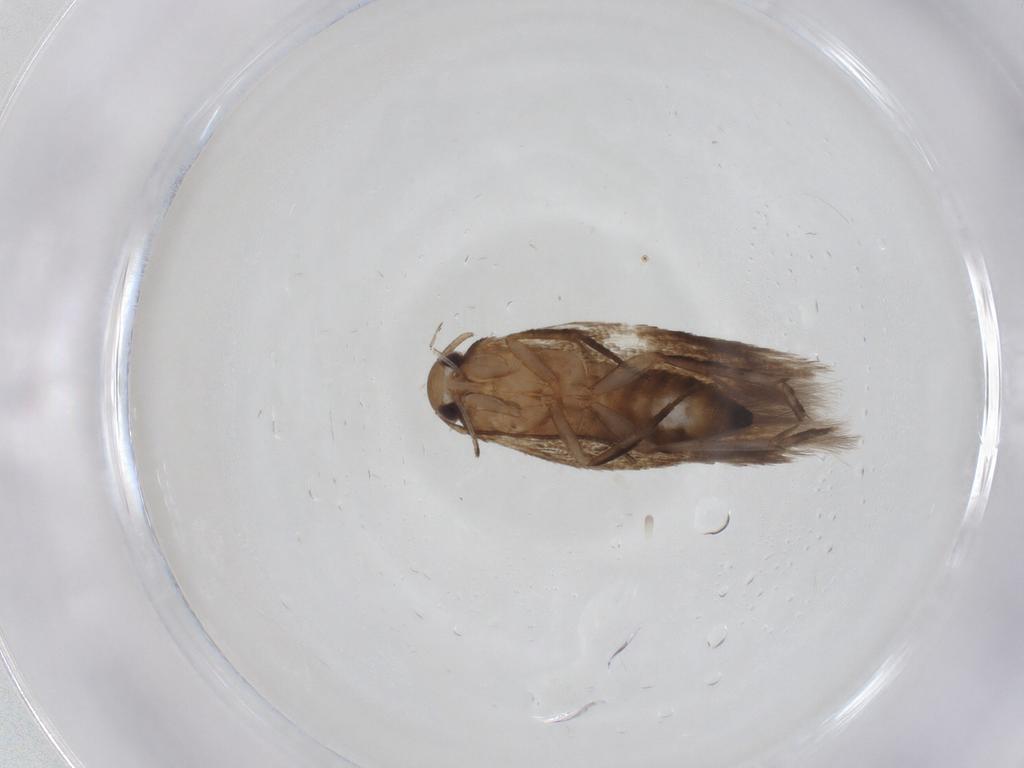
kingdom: Animalia
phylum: Arthropoda
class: Insecta
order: Lepidoptera
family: Cosmopterigidae
